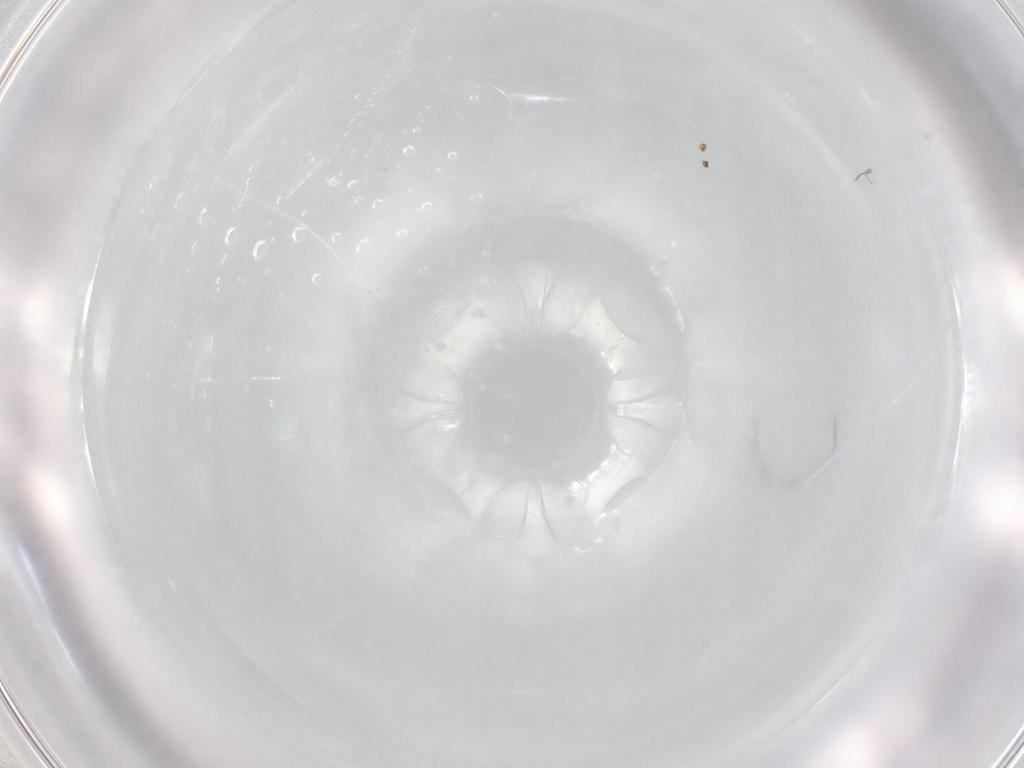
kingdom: Animalia
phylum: Arthropoda
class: Arachnida
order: Trombidiformes
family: Eupodidae
